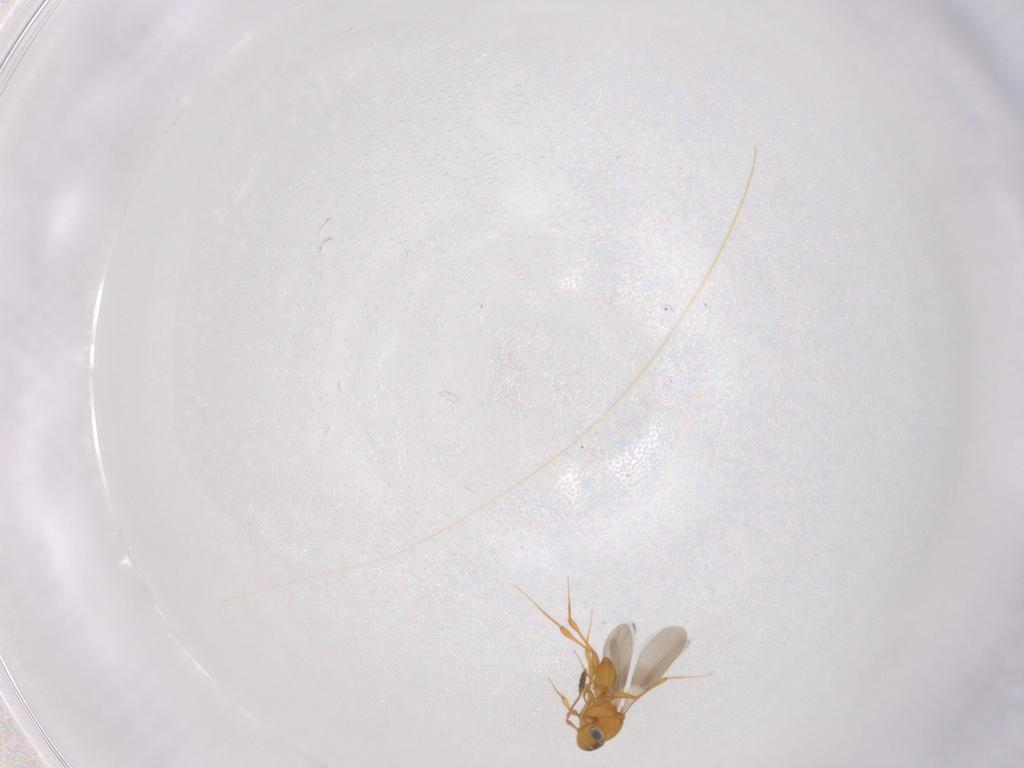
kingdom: Animalia
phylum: Arthropoda
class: Insecta
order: Hymenoptera
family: Platygastridae
